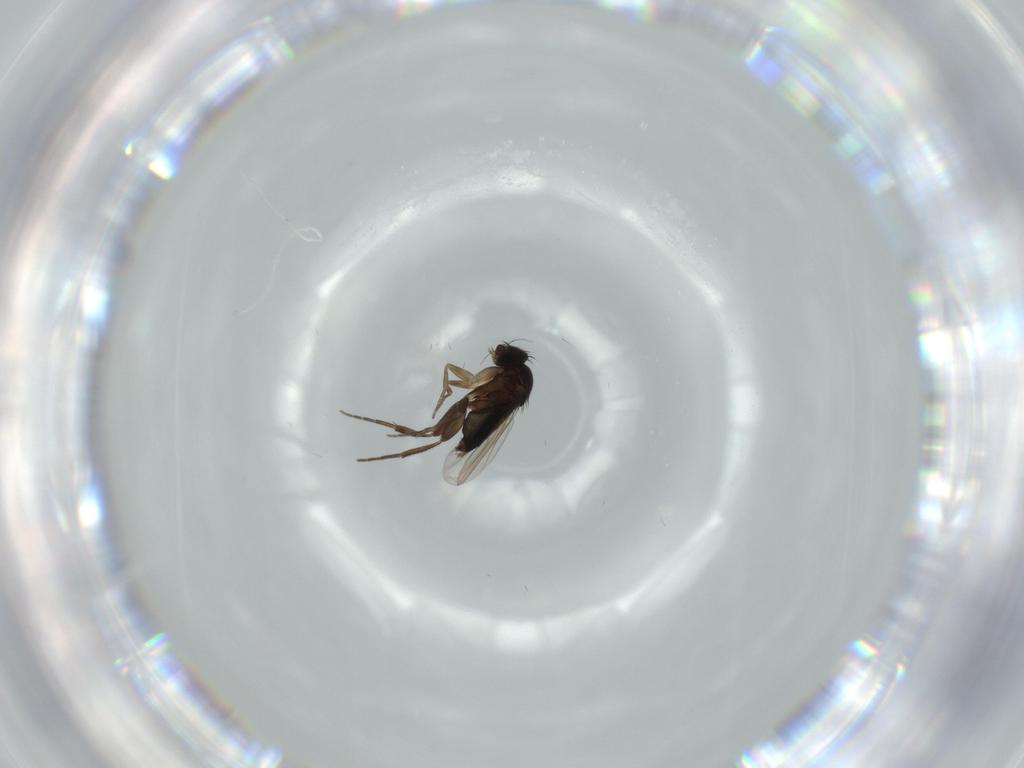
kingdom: Animalia
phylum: Arthropoda
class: Insecta
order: Diptera
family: Phoridae
